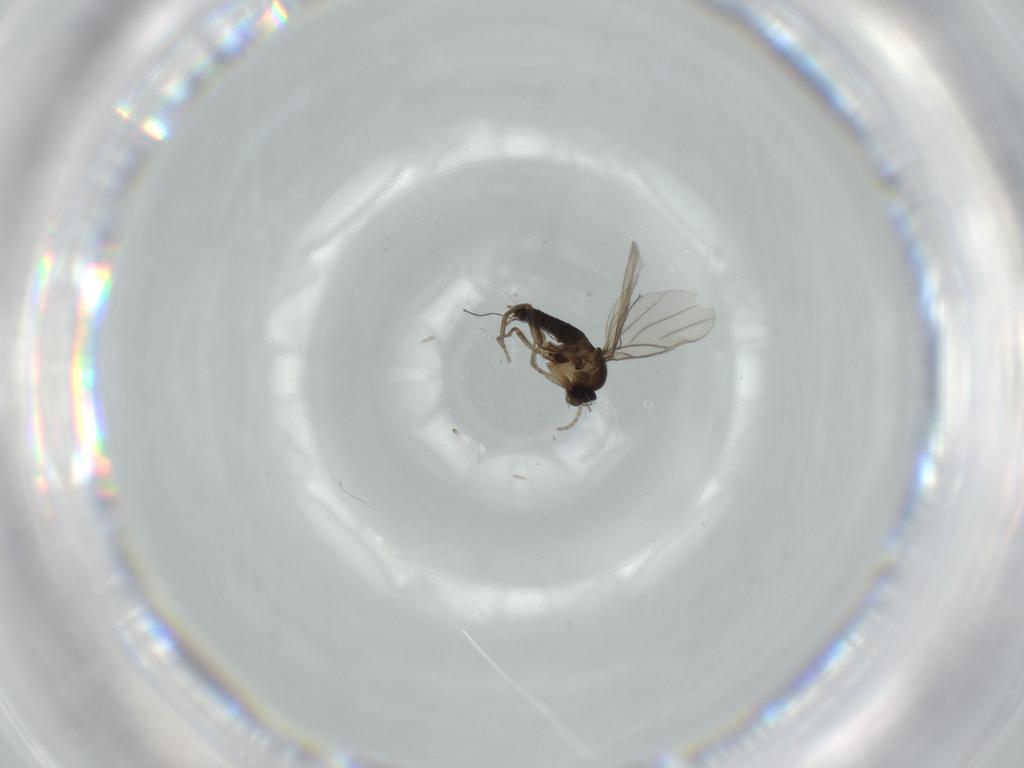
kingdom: Animalia
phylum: Arthropoda
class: Insecta
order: Diptera
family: Phoridae
